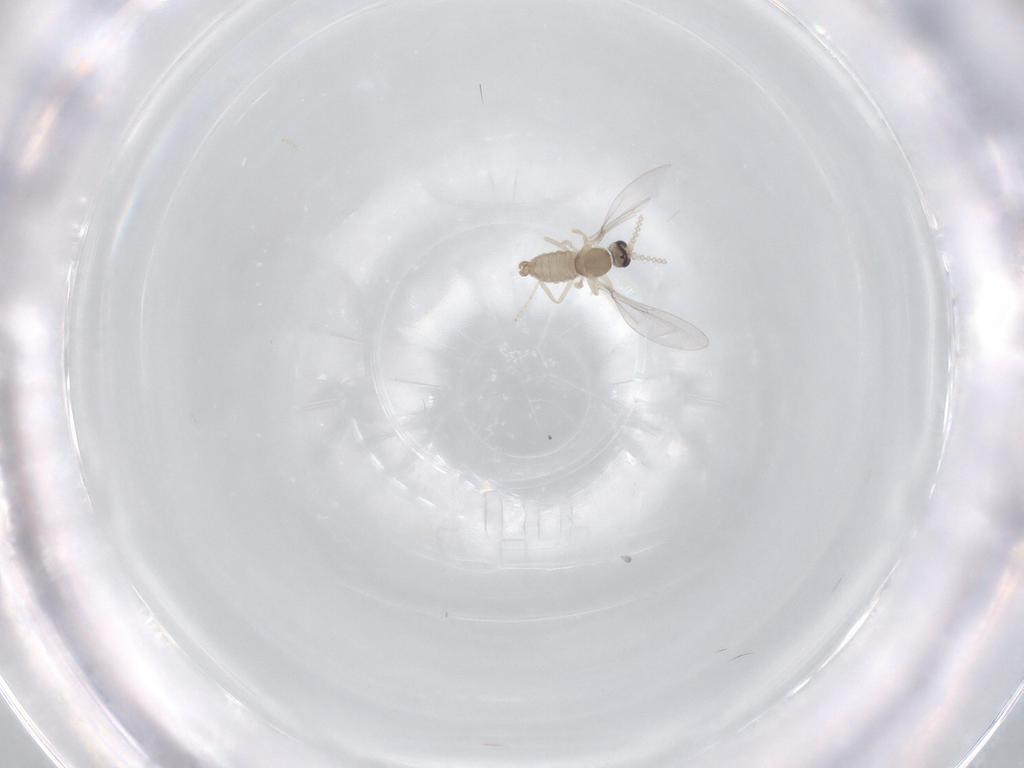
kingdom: Animalia
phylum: Arthropoda
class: Insecta
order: Diptera
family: Cecidomyiidae
